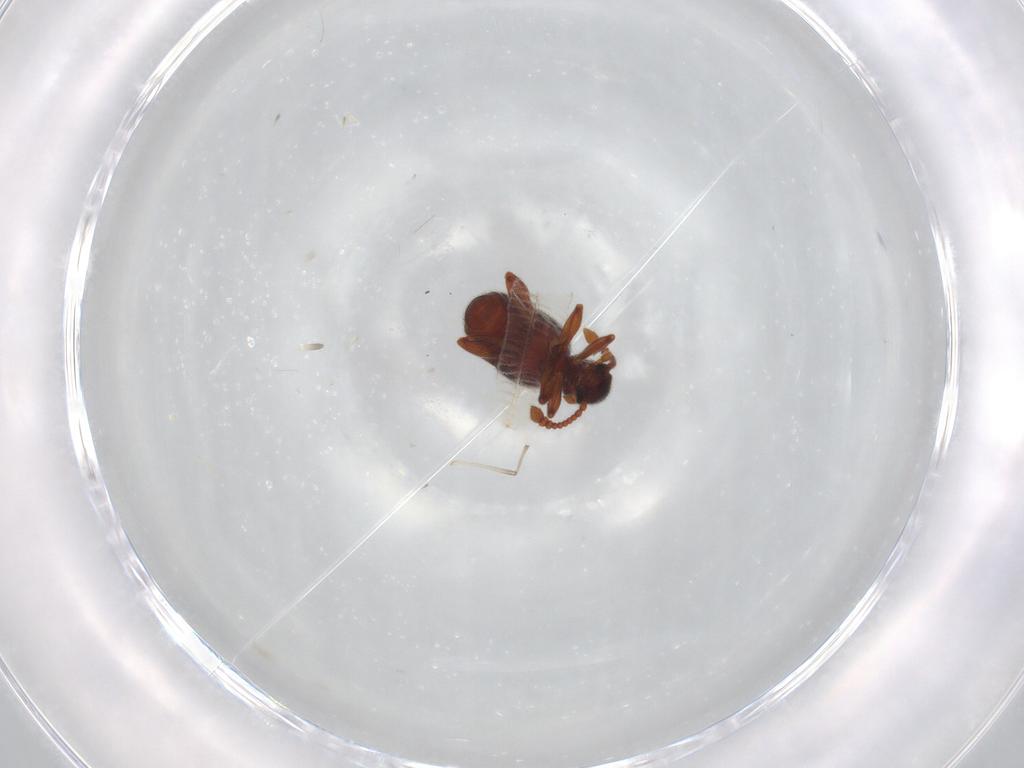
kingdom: Animalia
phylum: Arthropoda
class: Insecta
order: Coleoptera
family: Staphylinidae
